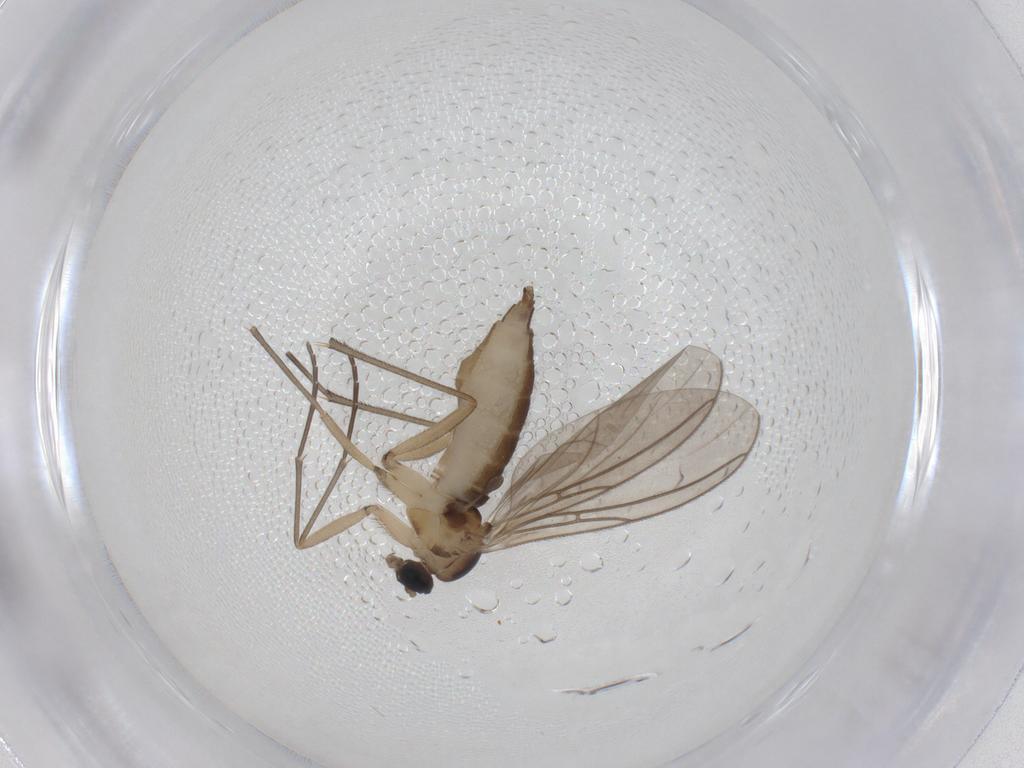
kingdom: Animalia
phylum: Arthropoda
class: Insecta
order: Diptera
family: Sciaridae
